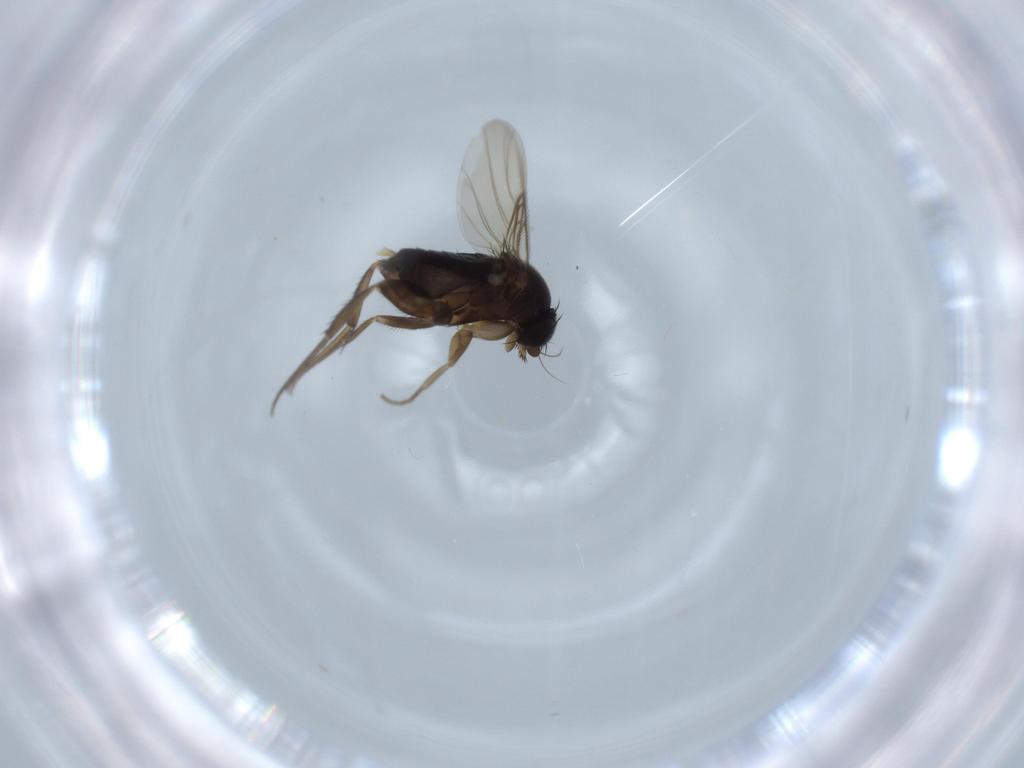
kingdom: Animalia
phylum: Arthropoda
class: Insecta
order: Diptera
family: Phoridae
